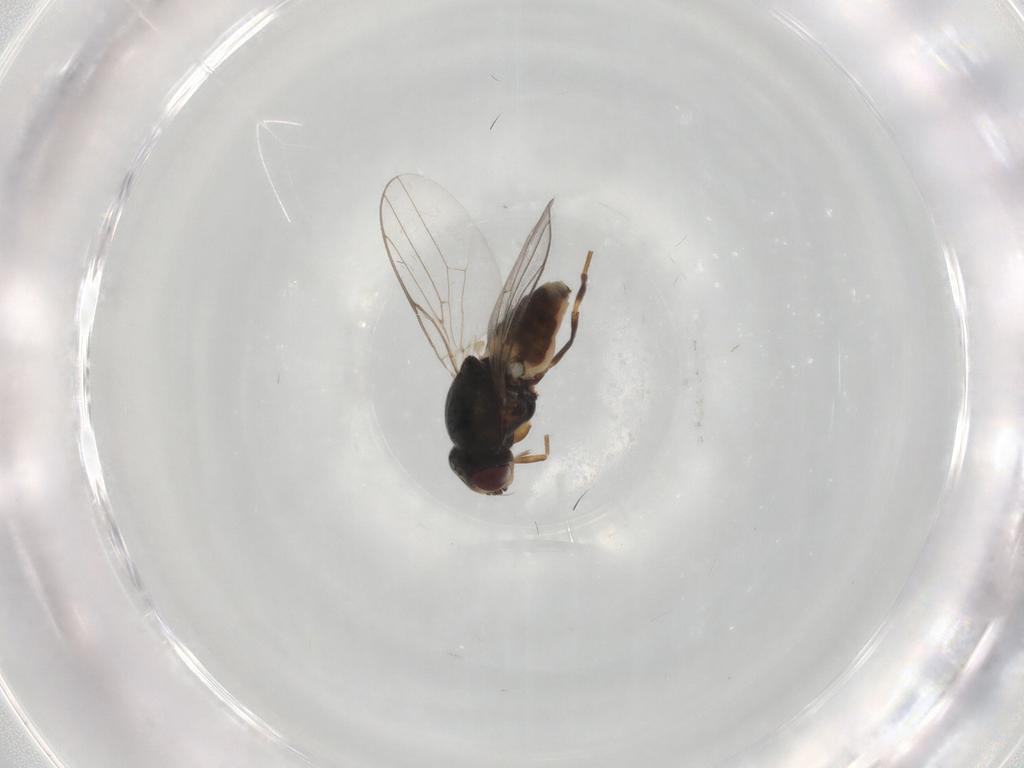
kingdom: Animalia
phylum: Arthropoda
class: Insecta
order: Diptera
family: Chloropidae
